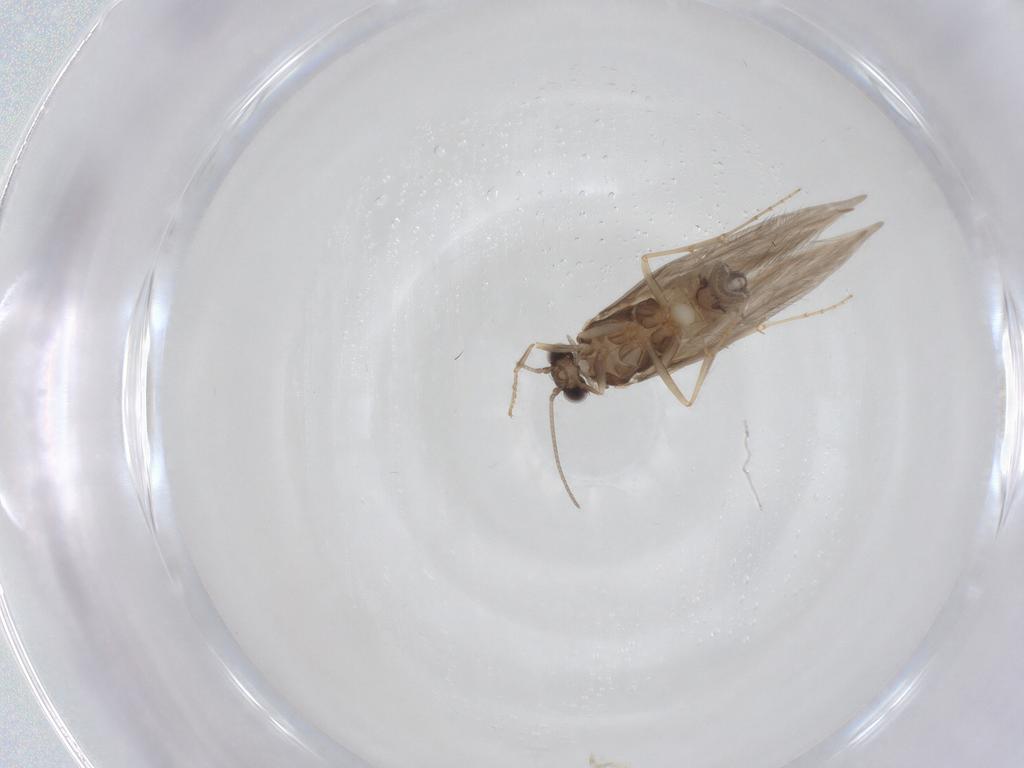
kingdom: Animalia
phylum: Arthropoda
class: Insecta
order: Trichoptera
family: Hydroptilidae
